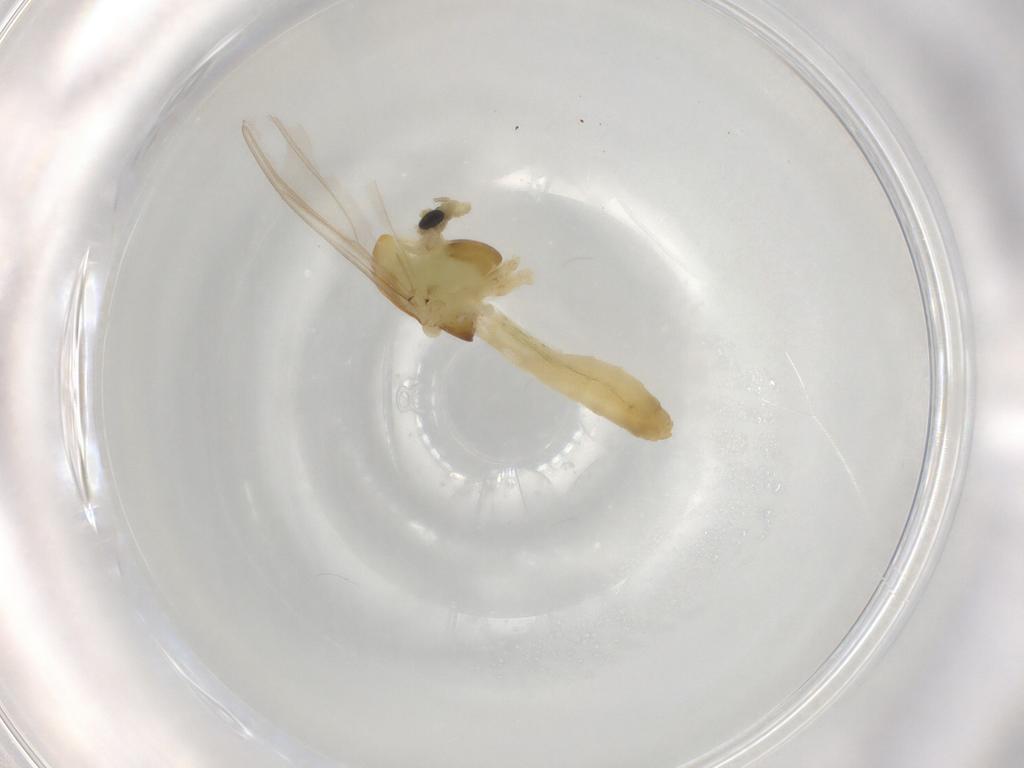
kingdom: Animalia
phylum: Arthropoda
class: Insecta
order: Diptera
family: Chironomidae
